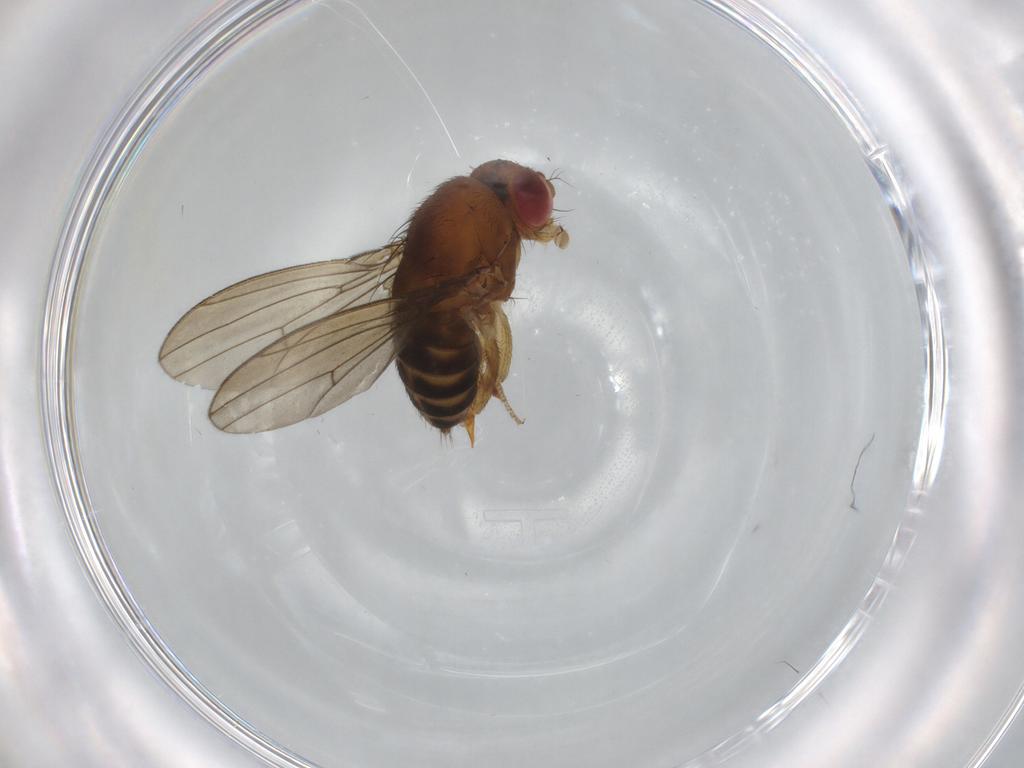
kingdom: Animalia
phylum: Arthropoda
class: Insecta
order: Diptera
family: Drosophilidae
